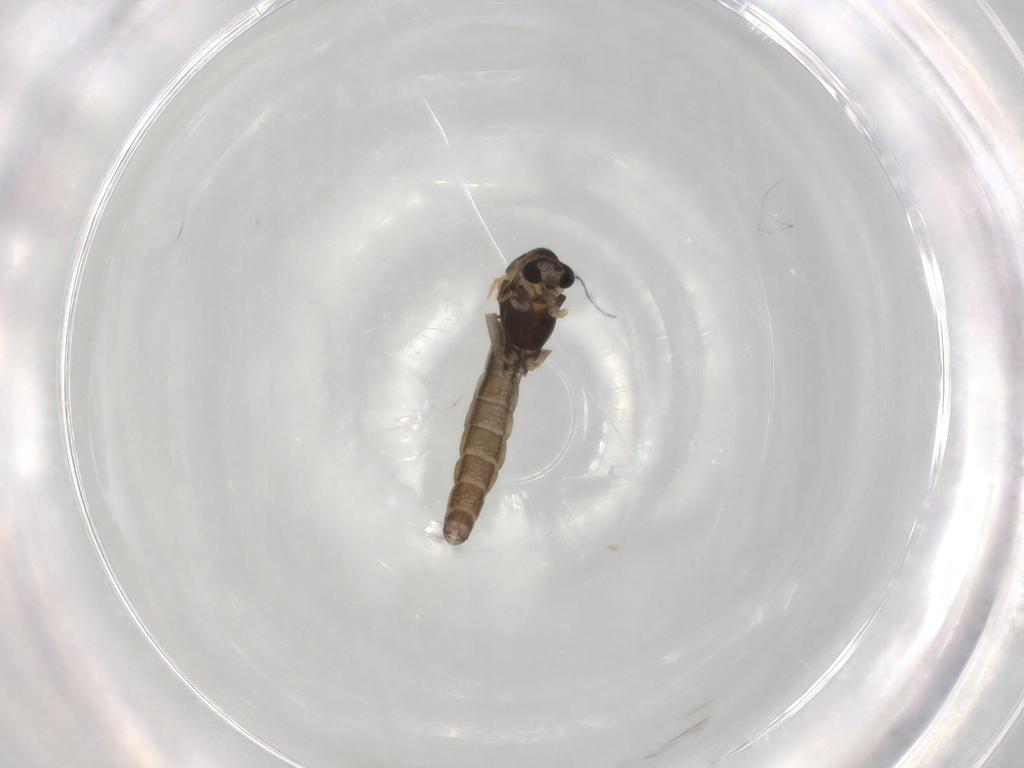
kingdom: Animalia
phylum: Arthropoda
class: Insecta
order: Diptera
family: Chironomidae
